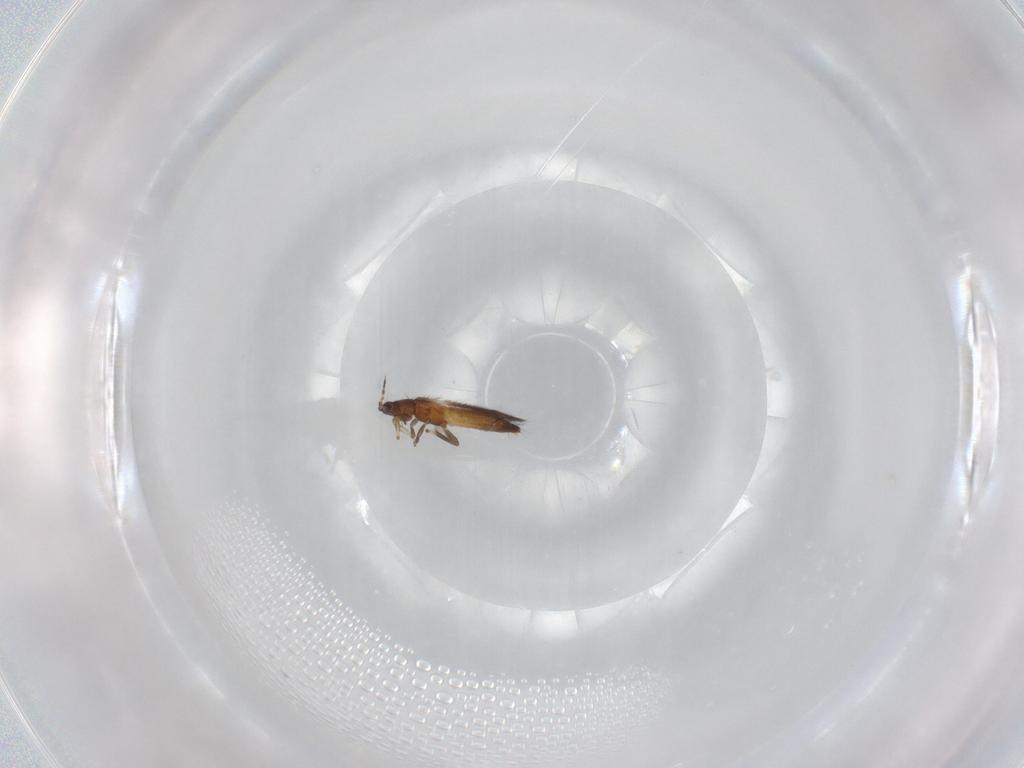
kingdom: Animalia
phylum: Arthropoda
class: Insecta
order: Thysanoptera
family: Thripidae
